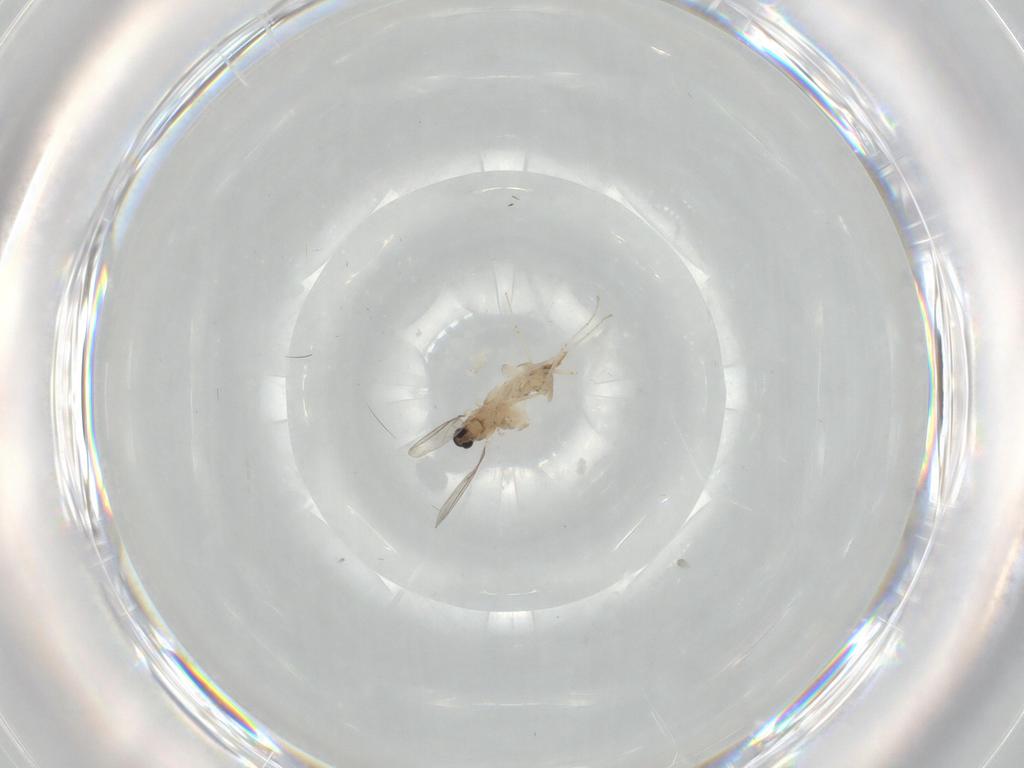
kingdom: Animalia
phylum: Arthropoda
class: Insecta
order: Diptera
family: Cecidomyiidae
